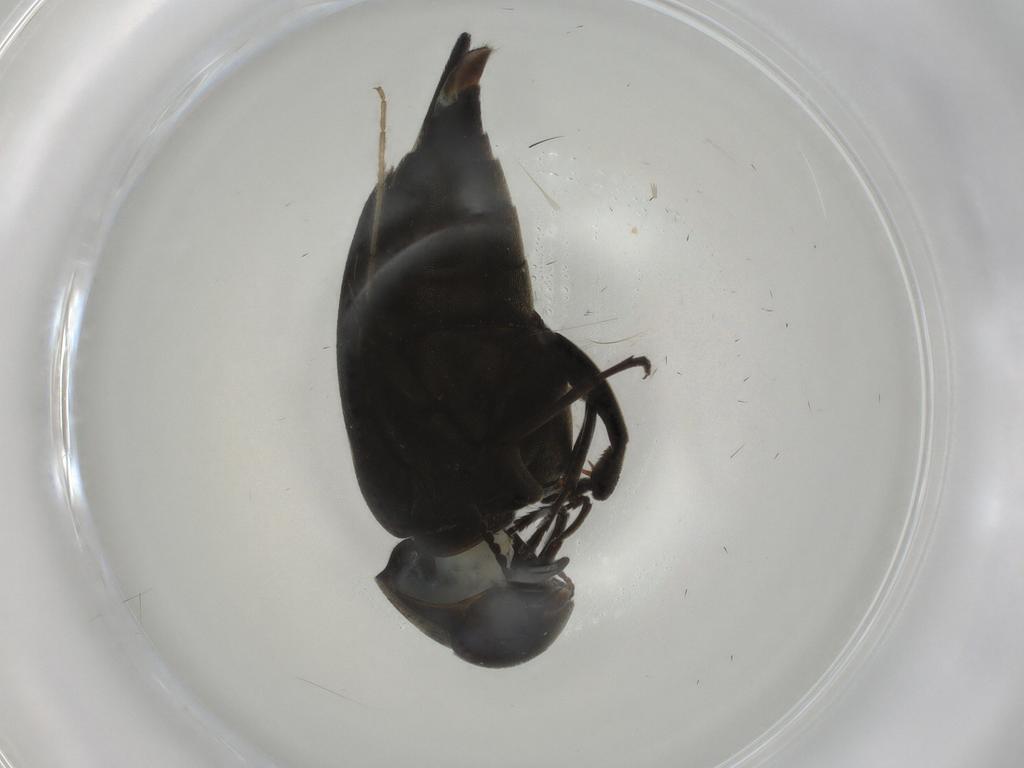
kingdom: Animalia
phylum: Arthropoda
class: Insecta
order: Coleoptera
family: Mordellidae
